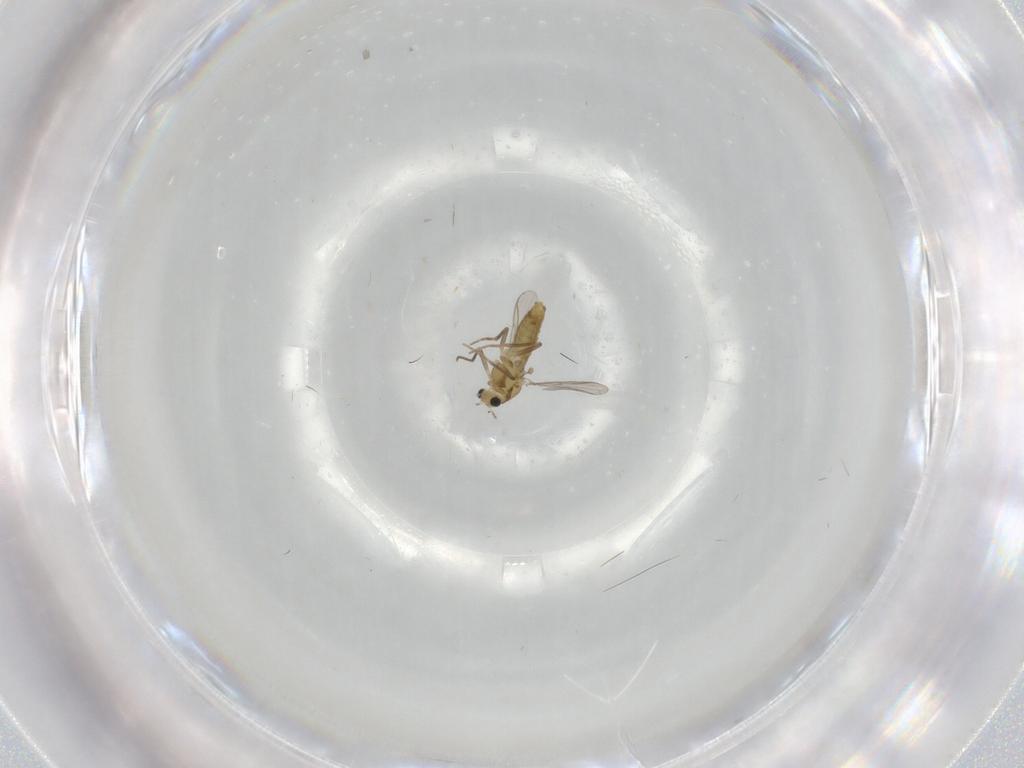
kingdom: Animalia
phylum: Arthropoda
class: Insecta
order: Diptera
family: Chironomidae
